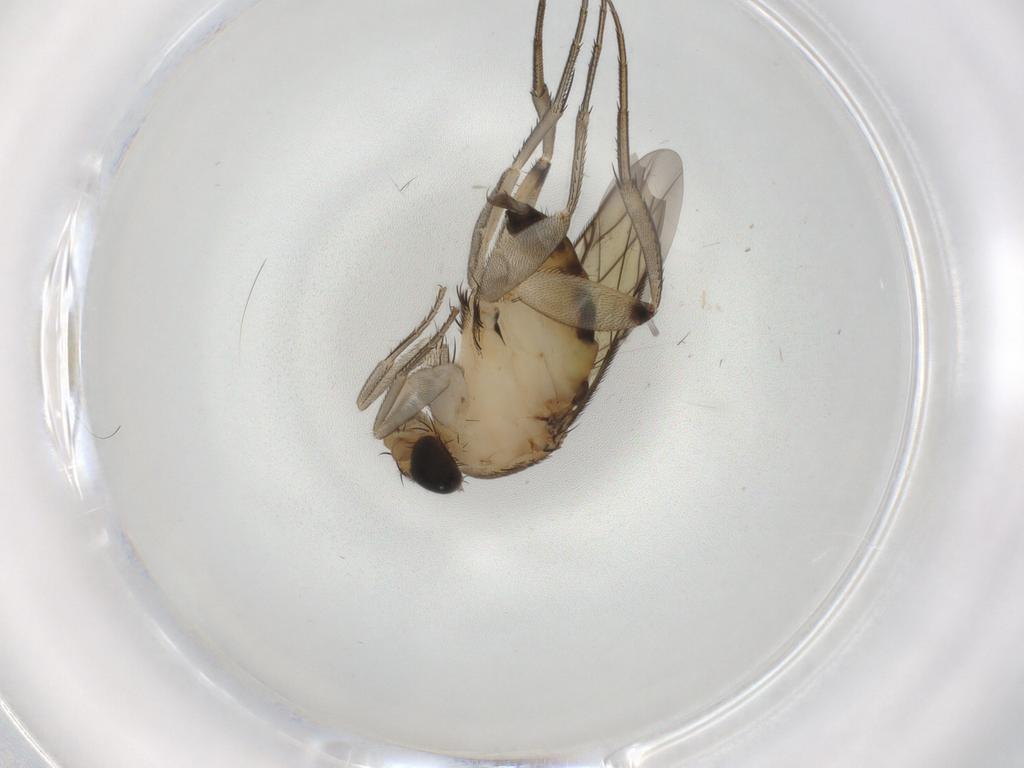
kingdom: Animalia
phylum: Arthropoda
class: Insecta
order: Diptera
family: Phoridae
